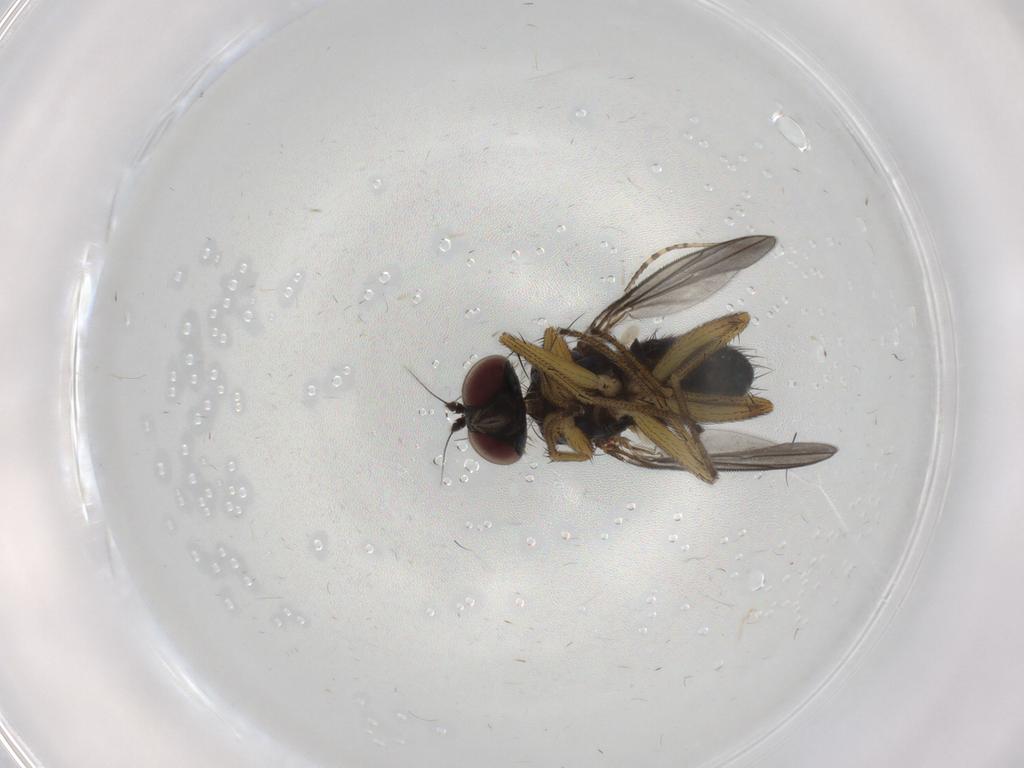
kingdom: Animalia
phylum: Arthropoda
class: Insecta
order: Diptera
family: Dolichopodidae
